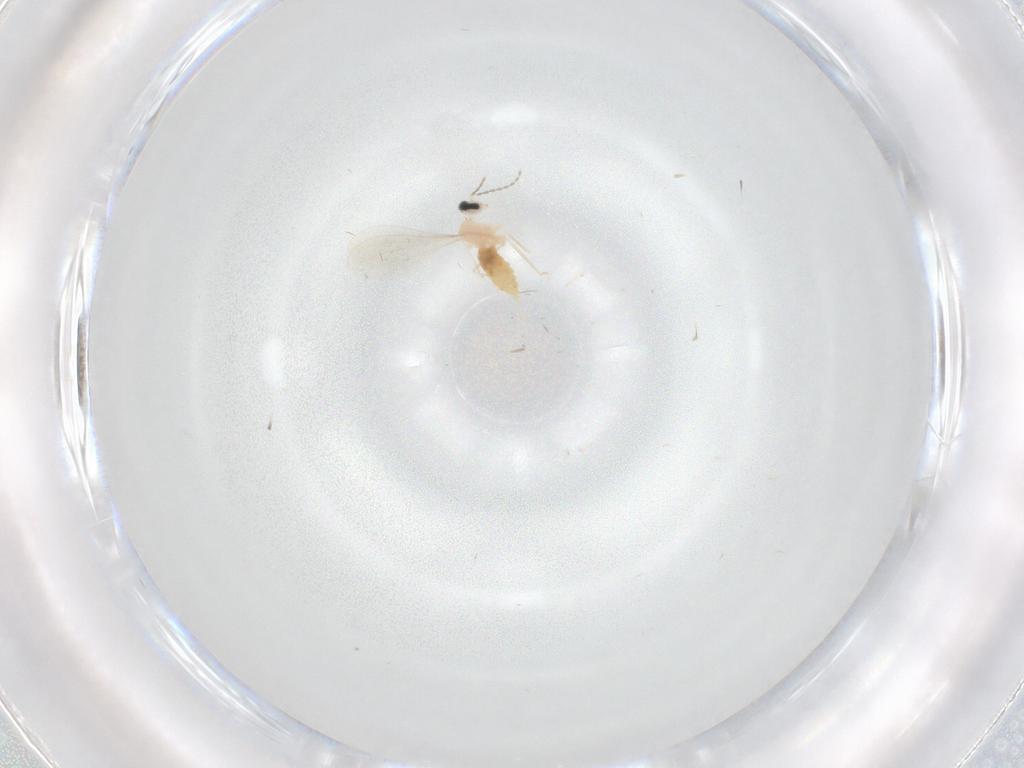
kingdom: Animalia
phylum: Arthropoda
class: Insecta
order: Diptera
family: Cecidomyiidae
